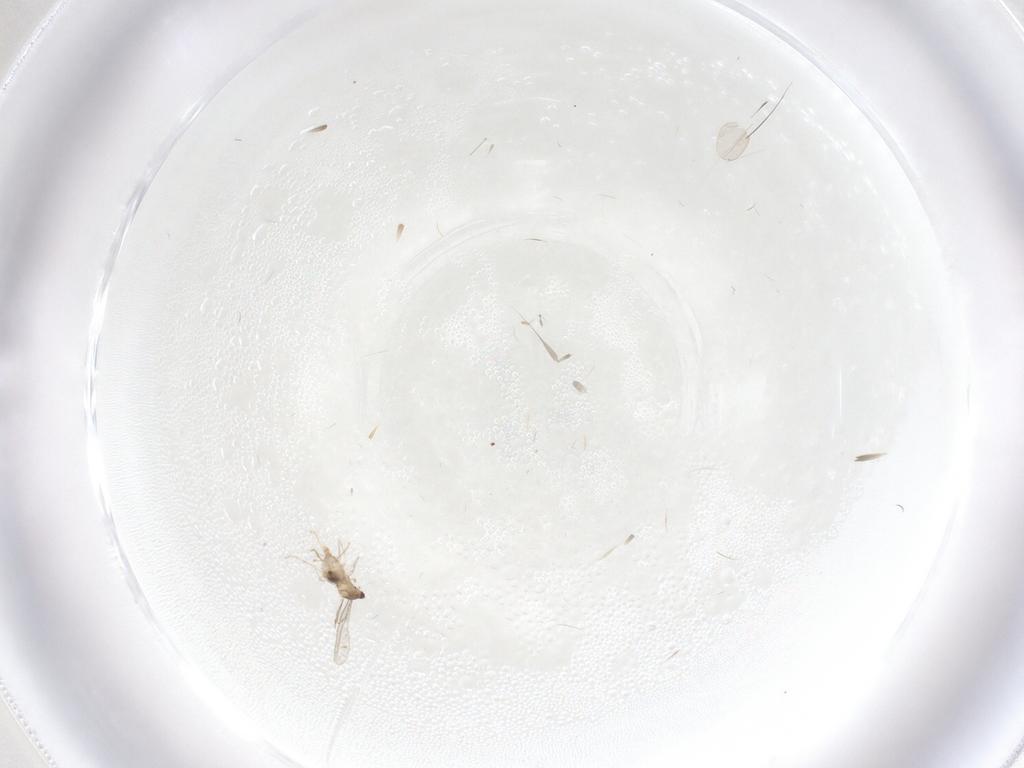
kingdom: Animalia
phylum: Arthropoda
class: Insecta
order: Diptera
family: Cecidomyiidae
